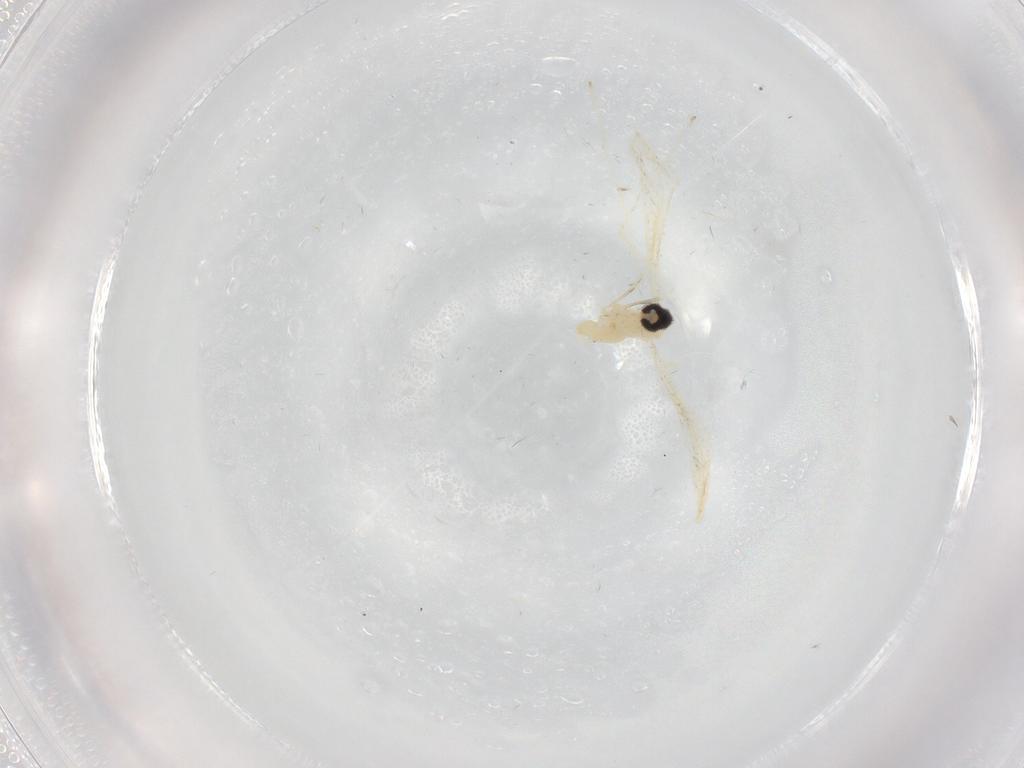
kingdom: Animalia
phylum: Arthropoda
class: Insecta
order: Diptera
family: Cecidomyiidae
